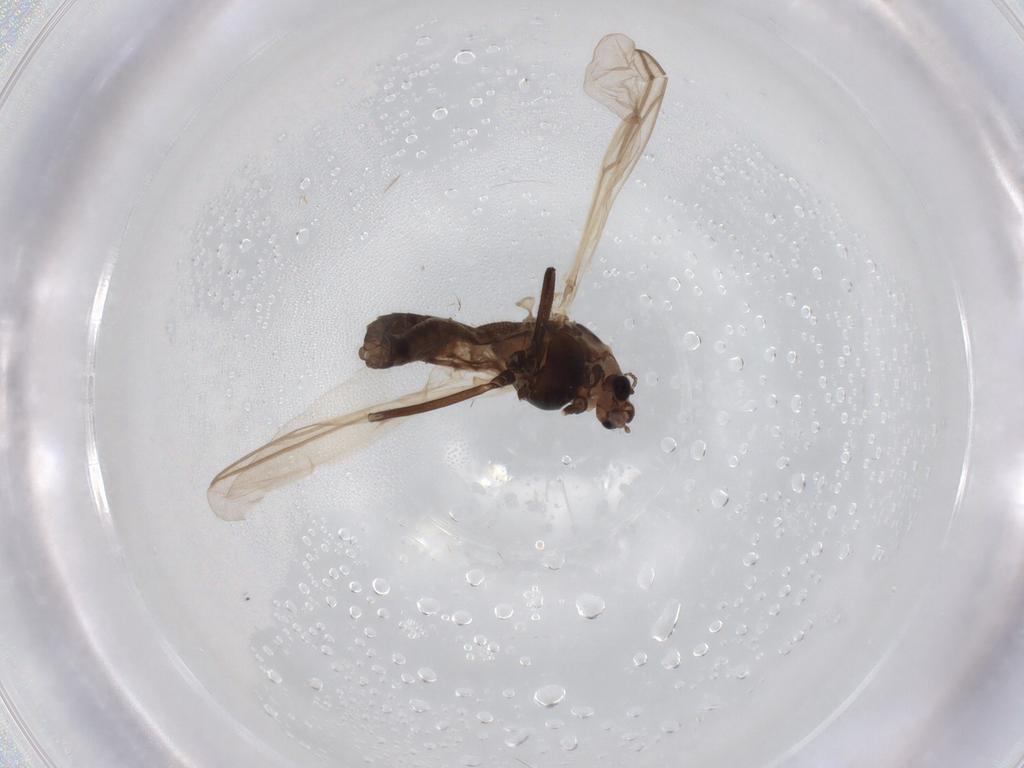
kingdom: Animalia
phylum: Arthropoda
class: Insecta
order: Diptera
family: Chironomidae
